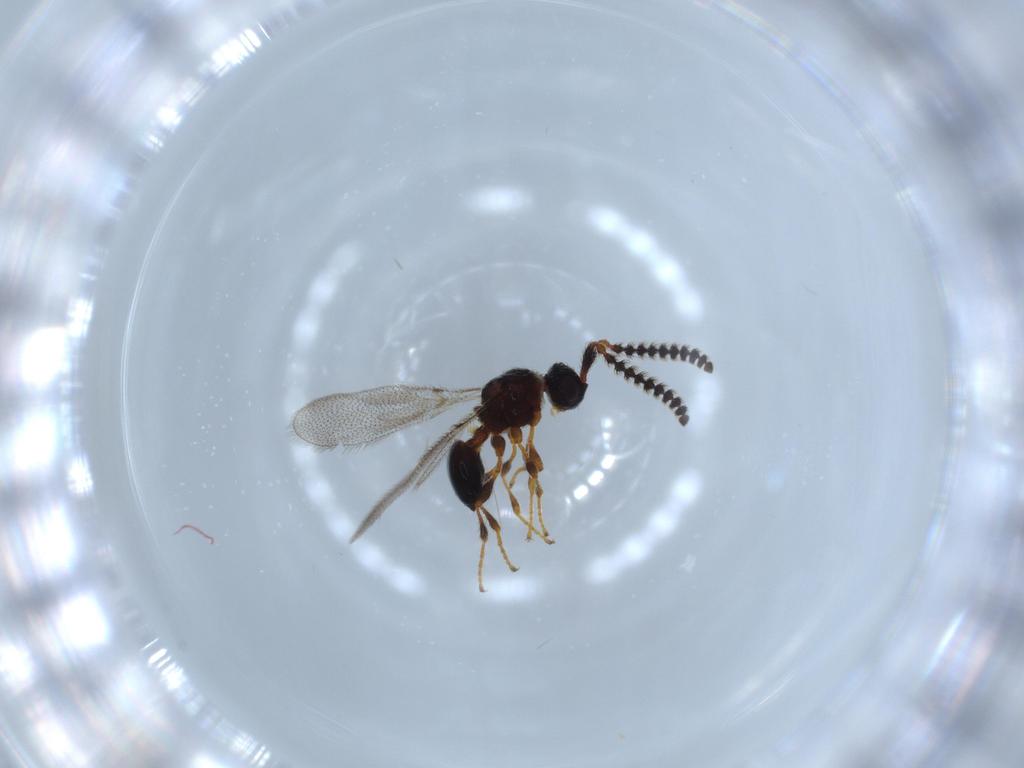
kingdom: Animalia
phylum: Arthropoda
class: Insecta
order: Hymenoptera
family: Diapriidae
